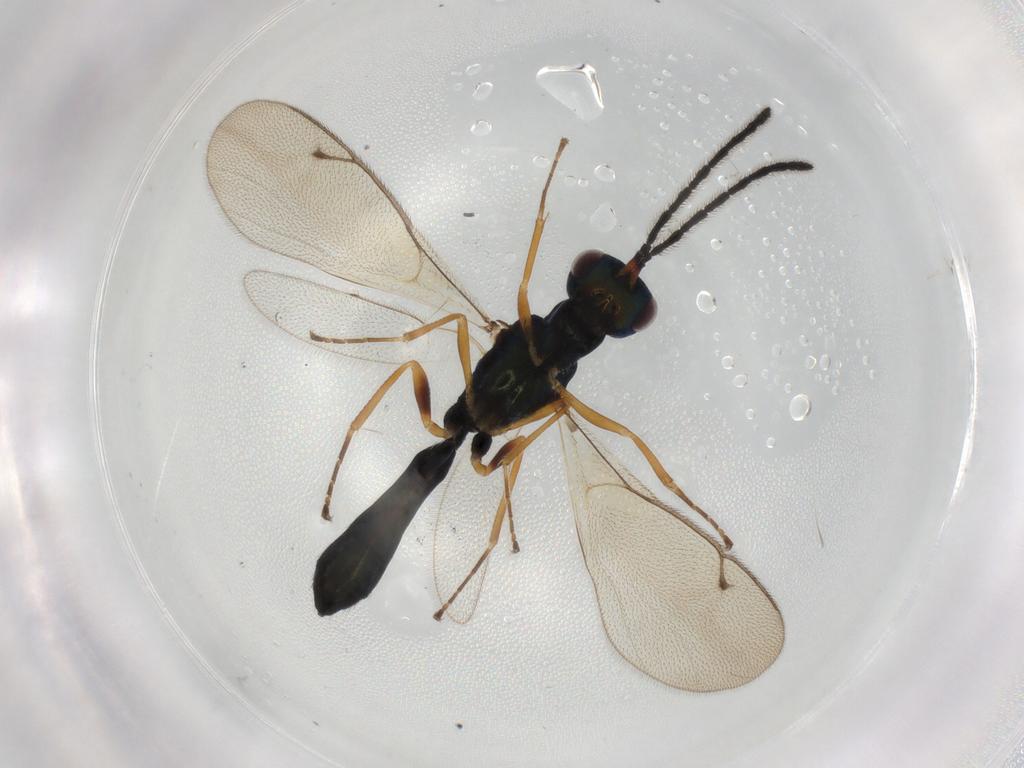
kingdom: Animalia
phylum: Arthropoda
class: Insecta
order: Hymenoptera
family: Pteromalidae
